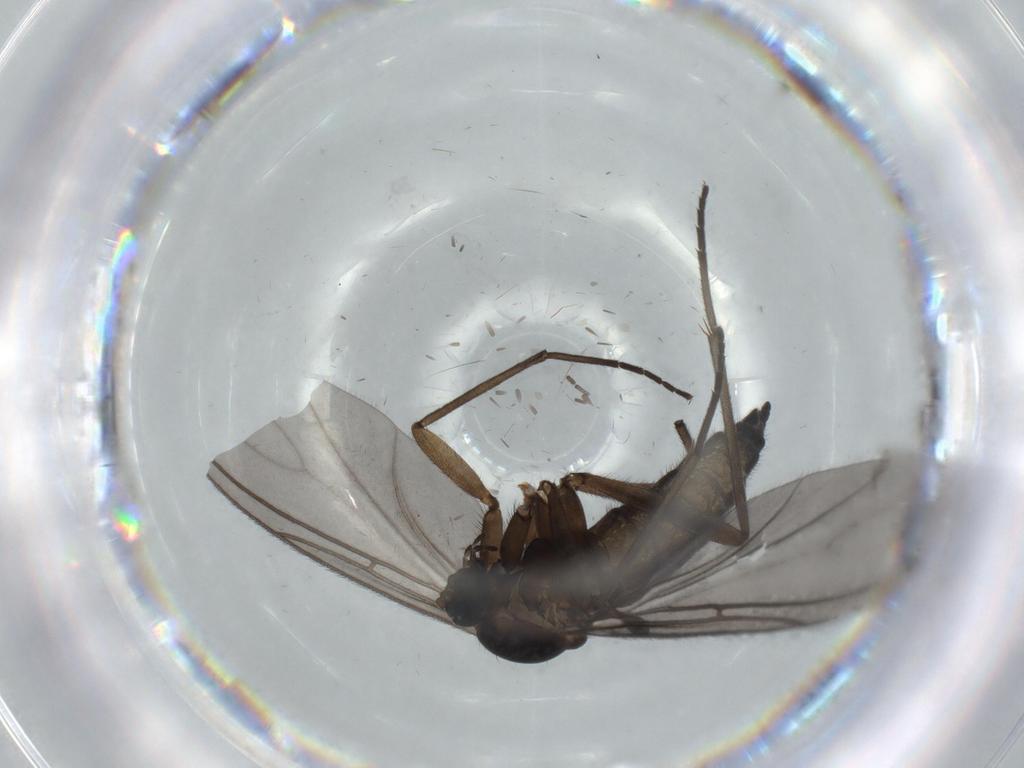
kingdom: Animalia
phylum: Arthropoda
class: Insecta
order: Diptera
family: Sciaridae
